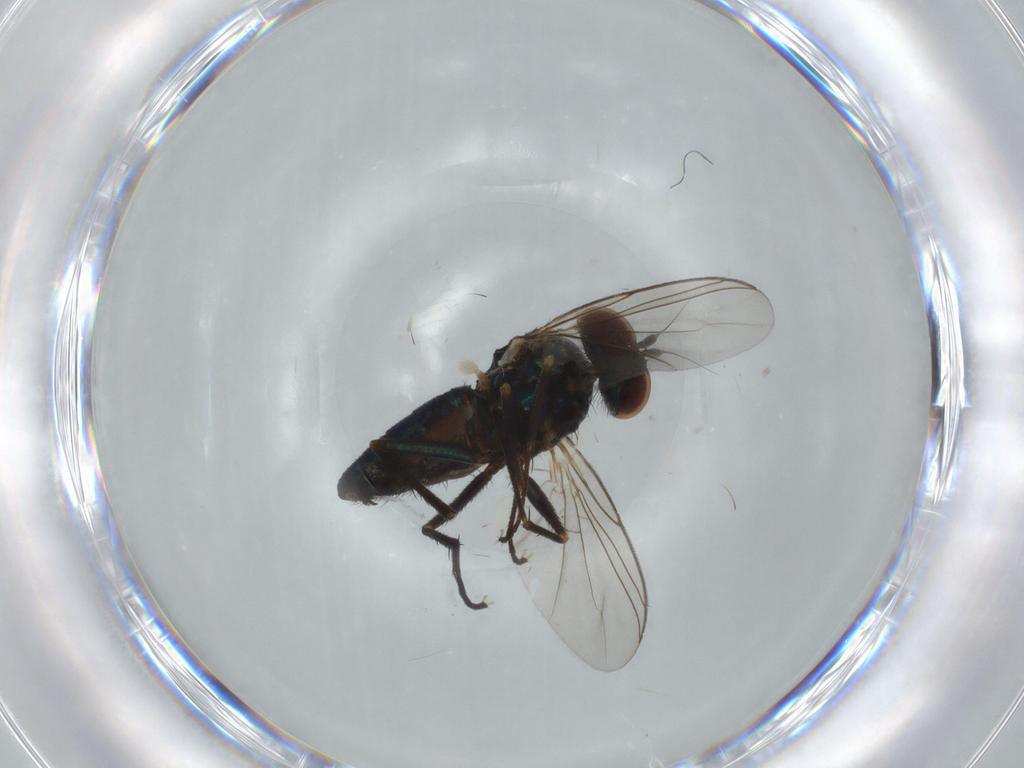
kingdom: Animalia
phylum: Arthropoda
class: Insecta
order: Diptera
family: Dolichopodidae
